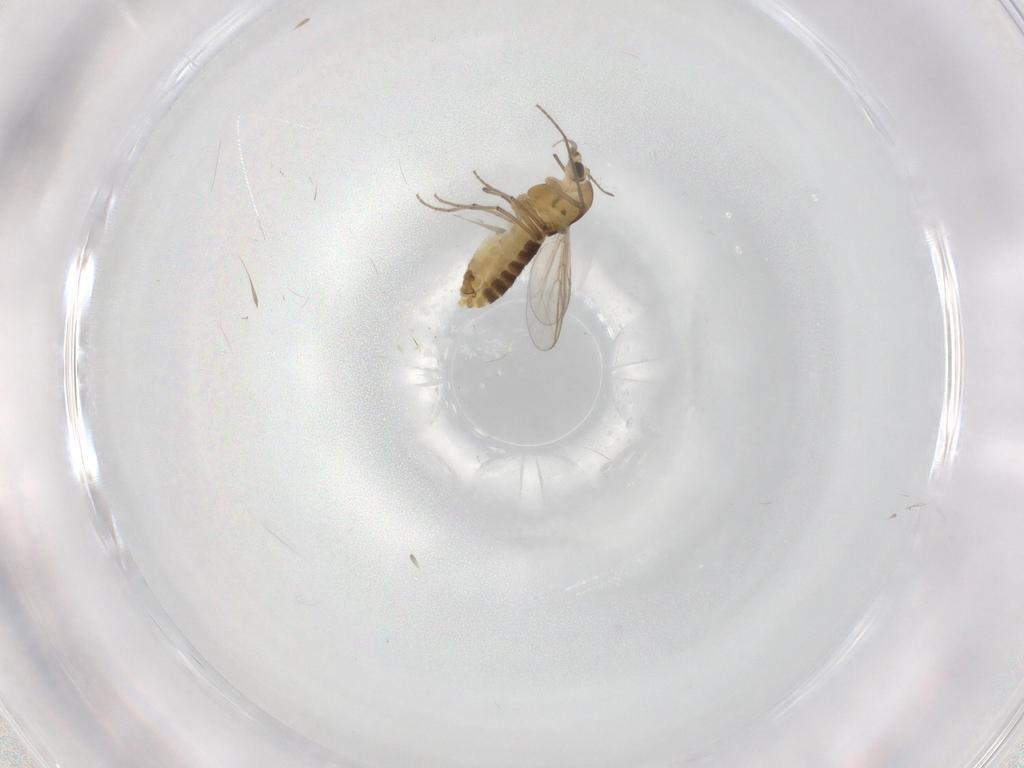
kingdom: Animalia
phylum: Arthropoda
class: Insecta
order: Diptera
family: Chironomidae
